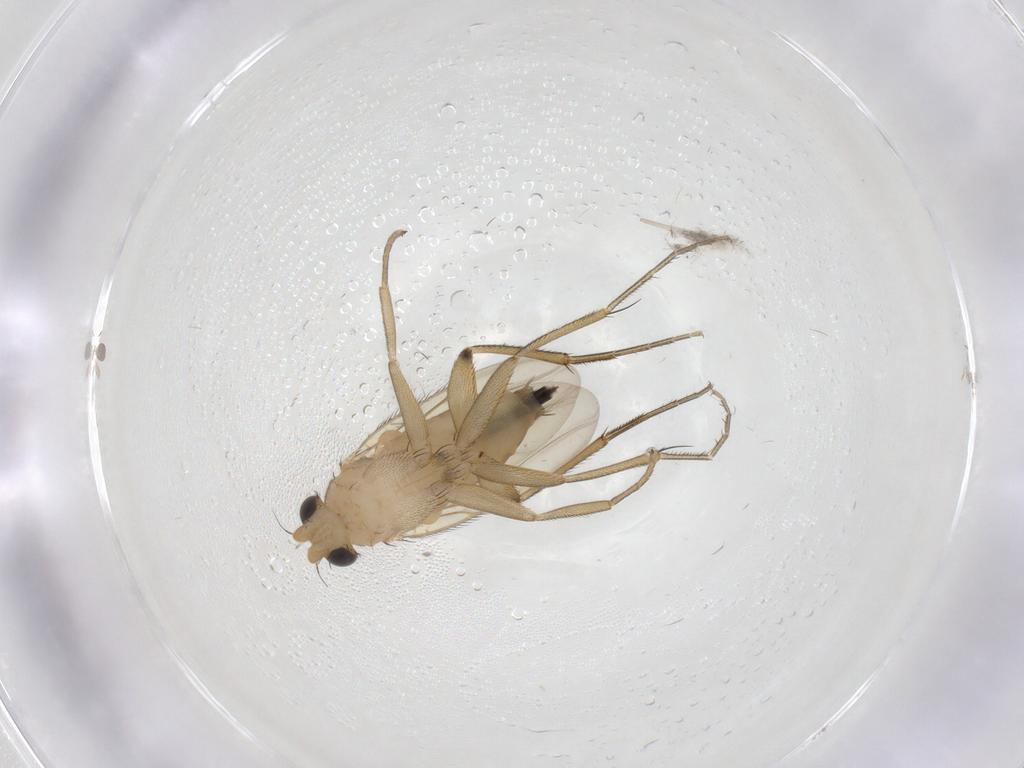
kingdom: Animalia
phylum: Arthropoda
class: Insecta
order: Diptera
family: Phoridae
